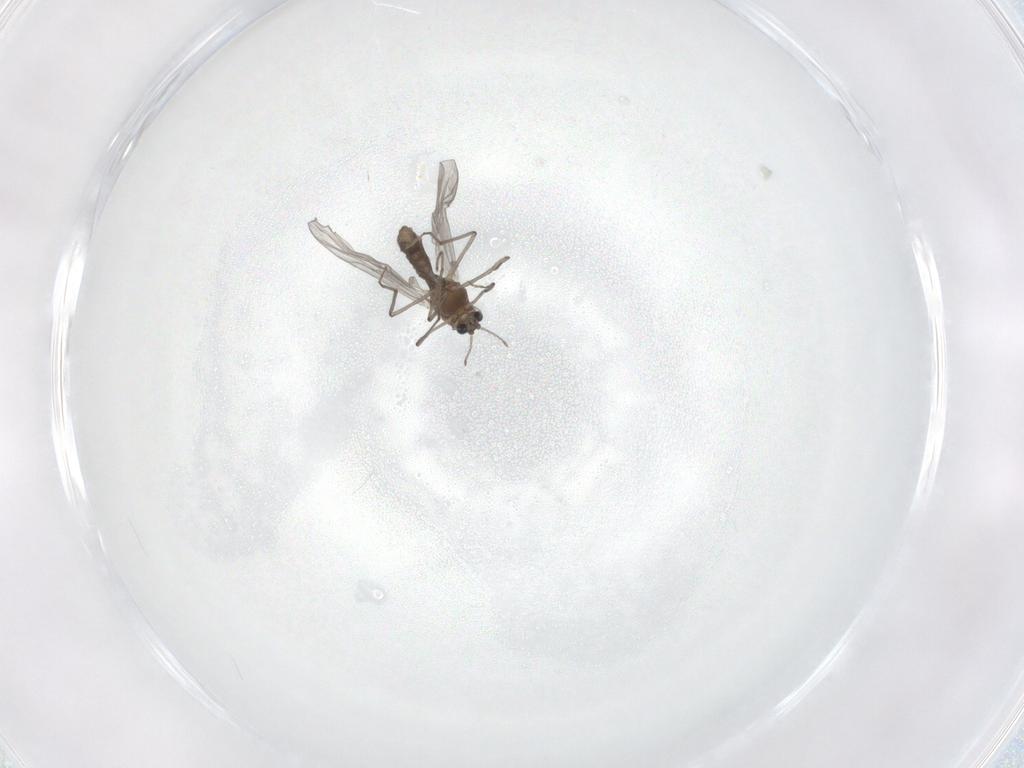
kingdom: Animalia
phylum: Arthropoda
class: Insecta
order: Diptera
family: Chironomidae
